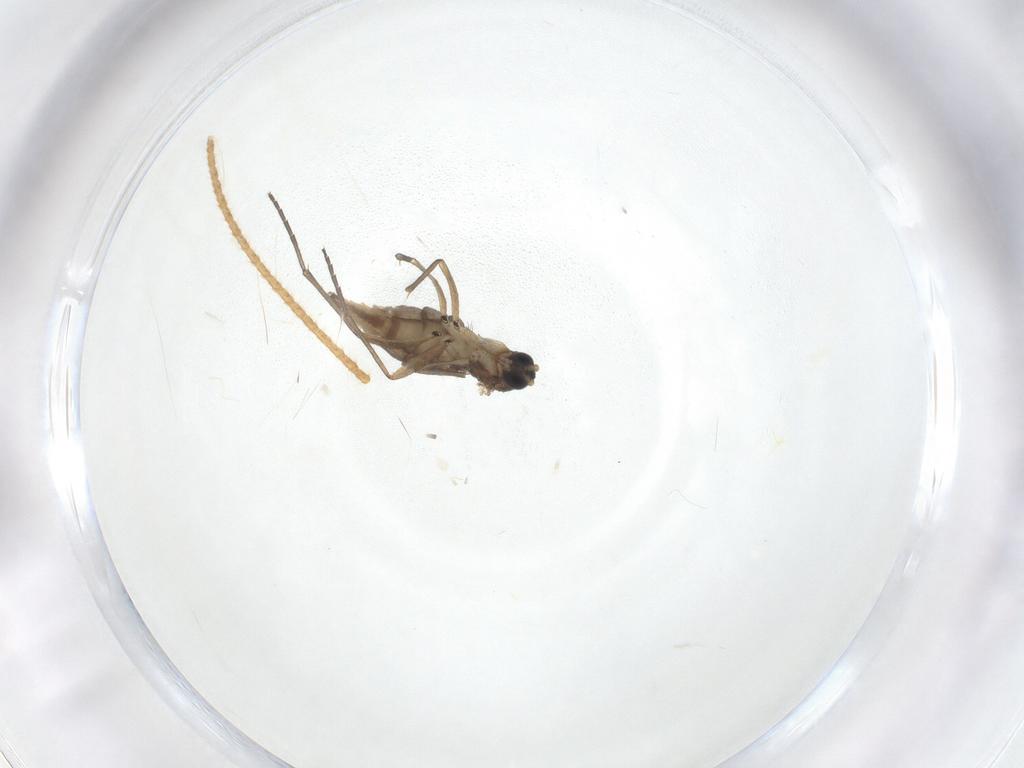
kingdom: Animalia
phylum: Arthropoda
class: Insecta
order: Diptera
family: Sciaridae
